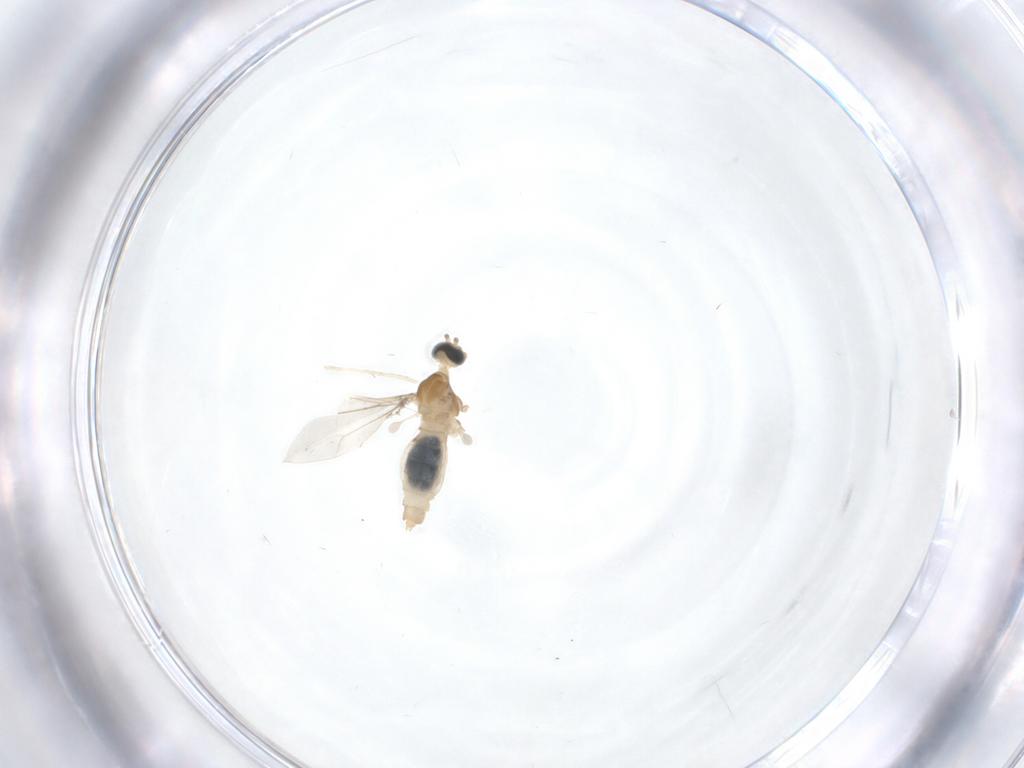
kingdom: Animalia
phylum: Arthropoda
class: Insecta
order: Diptera
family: Cecidomyiidae
